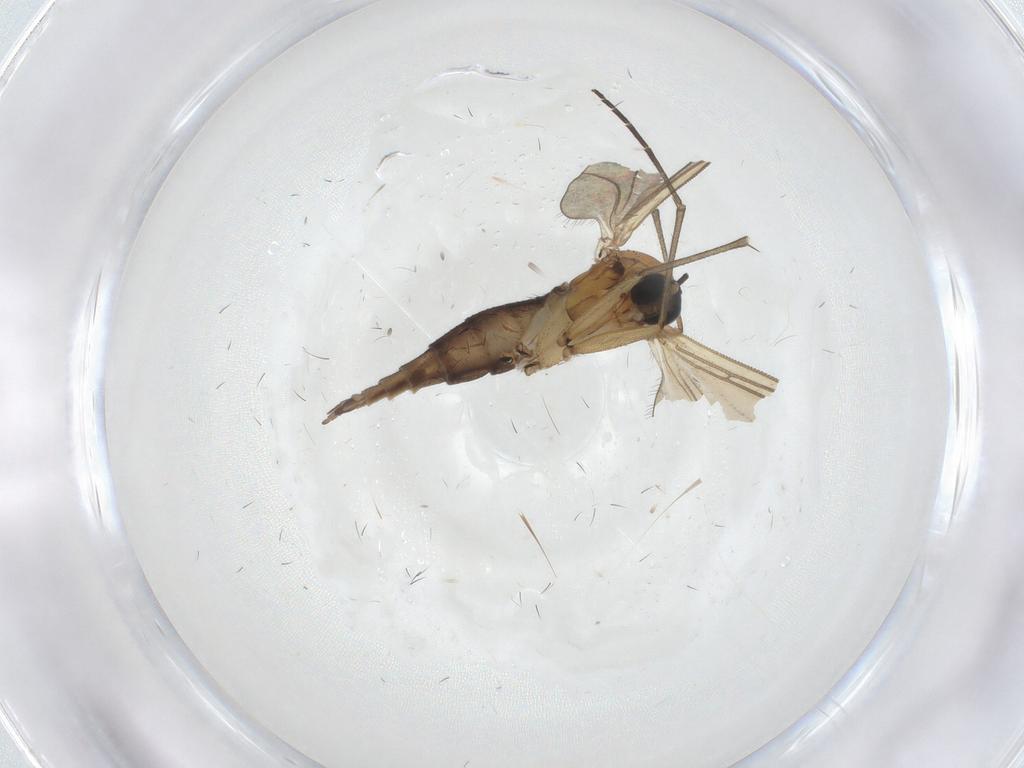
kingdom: Animalia
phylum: Arthropoda
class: Insecta
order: Diptera
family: Sciaridae
